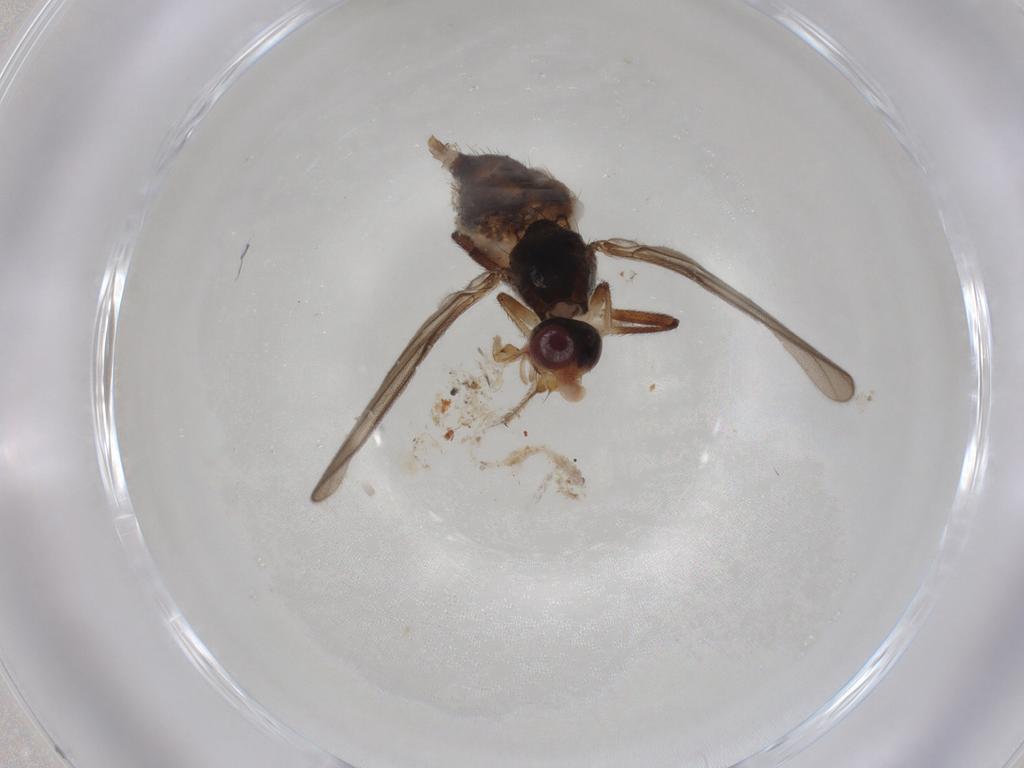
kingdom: Animalia
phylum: Arthropoda
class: Insecta
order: Diptera
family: Chloropidae
